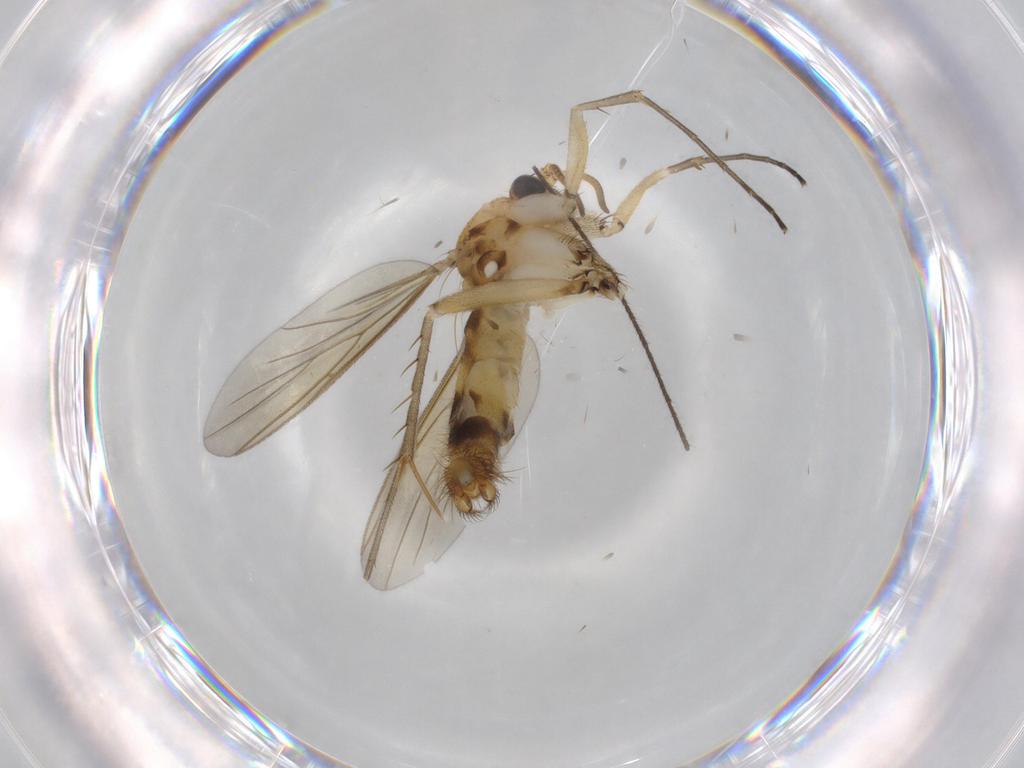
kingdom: Animalia
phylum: Arthropoda
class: Insecta
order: Diptera
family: Mycetophilidae
